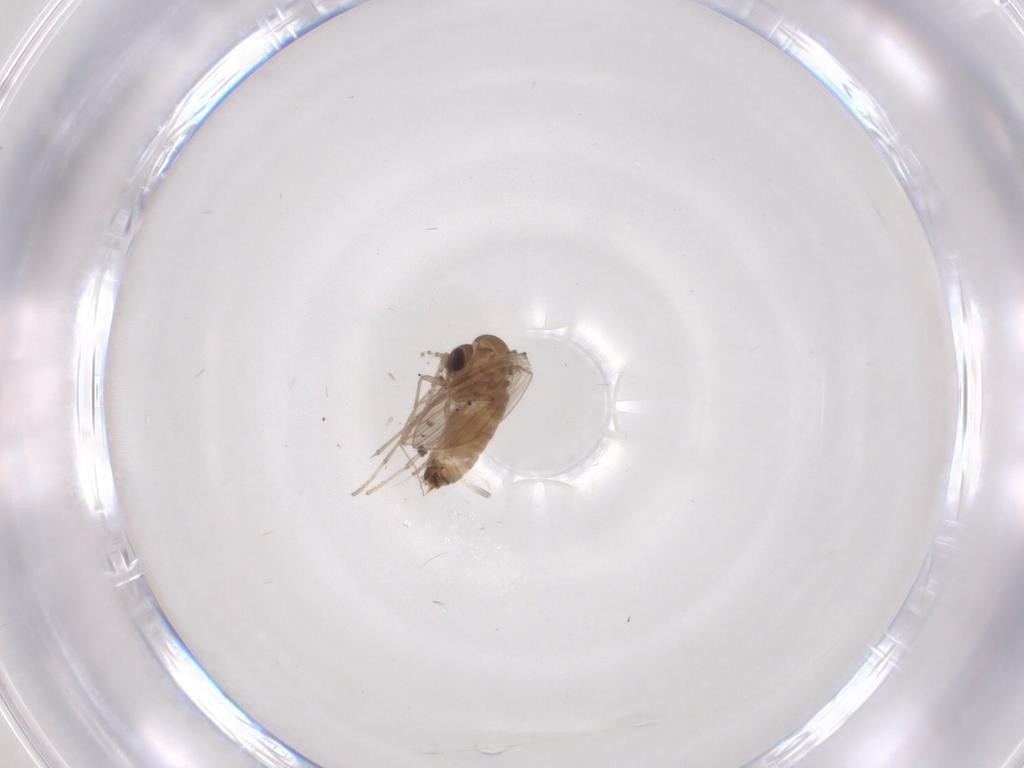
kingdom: Animalia
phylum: Arthropoda
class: Insecta
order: Diptera
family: Psychodidae
